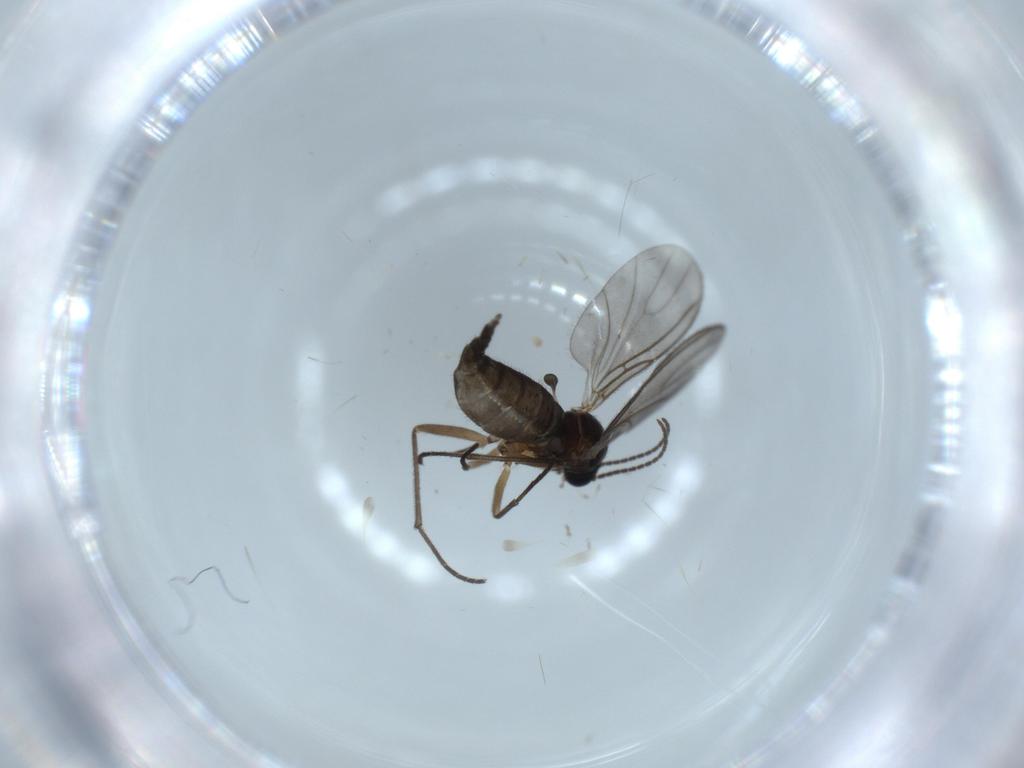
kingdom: Animalia
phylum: Arthropoda
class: Insecta
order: Diptera
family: Sciaridae
